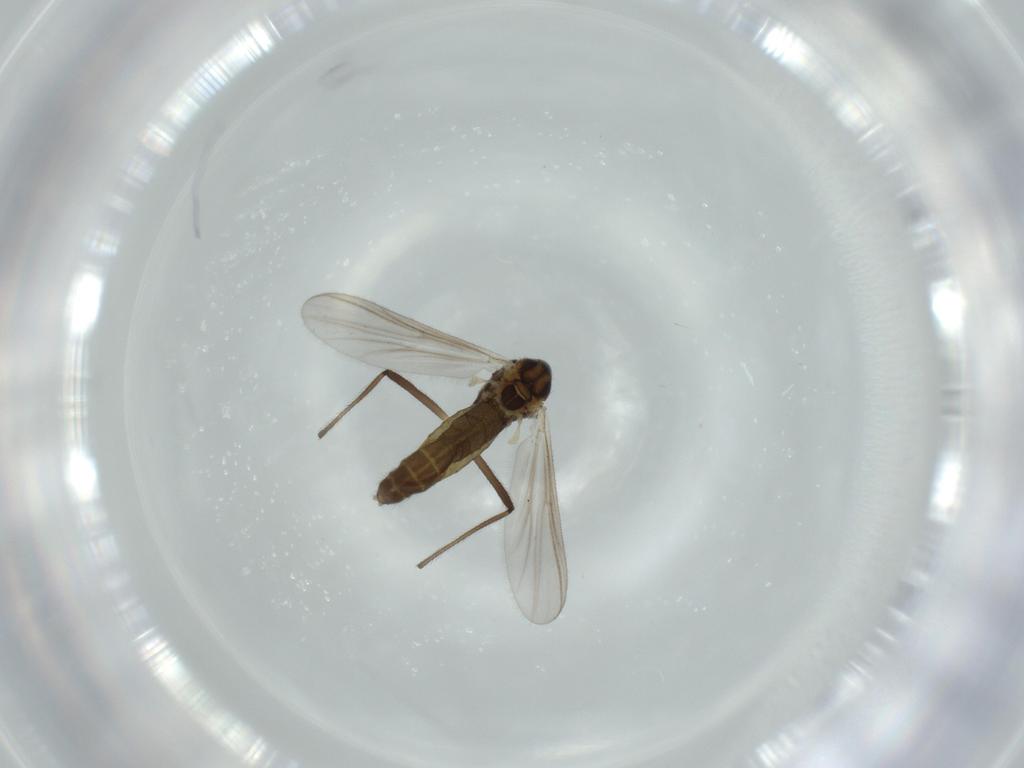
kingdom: Animalia
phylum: Arthropoda
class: Insecta
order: Diptera
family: Chironomidae
